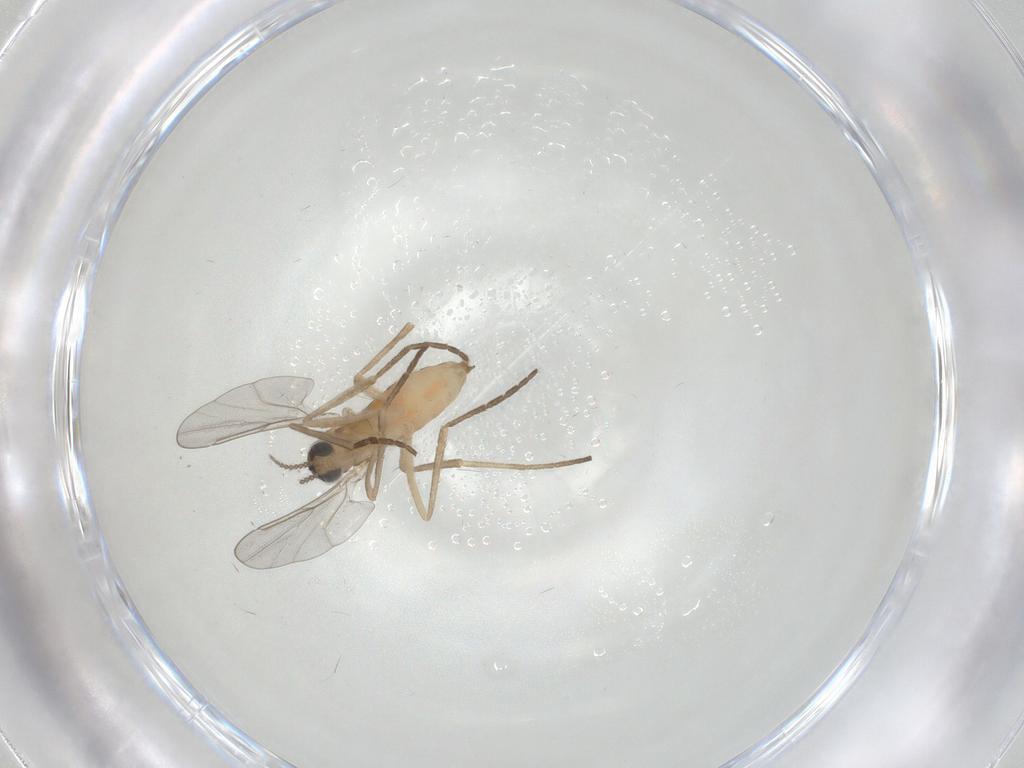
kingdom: Animalia
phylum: Arthropoda
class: Insecta
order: Diptera
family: Cecidomyiidae
